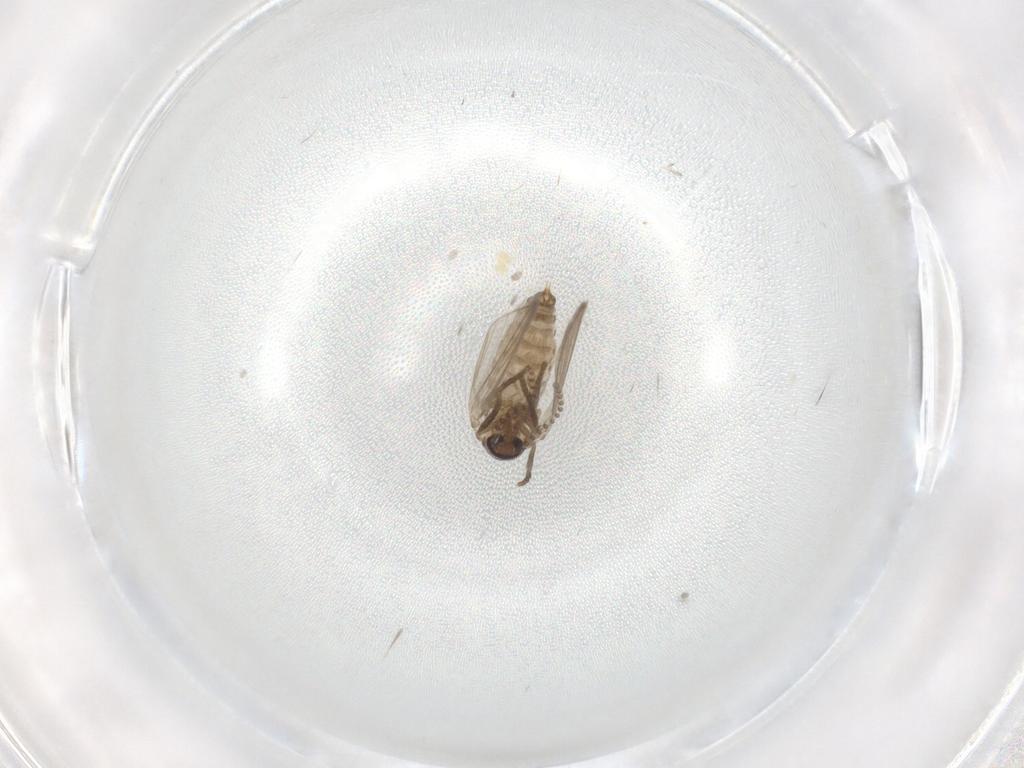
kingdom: Animalia
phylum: Arthropoda
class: Insecta
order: Diptera
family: Psychodidae
